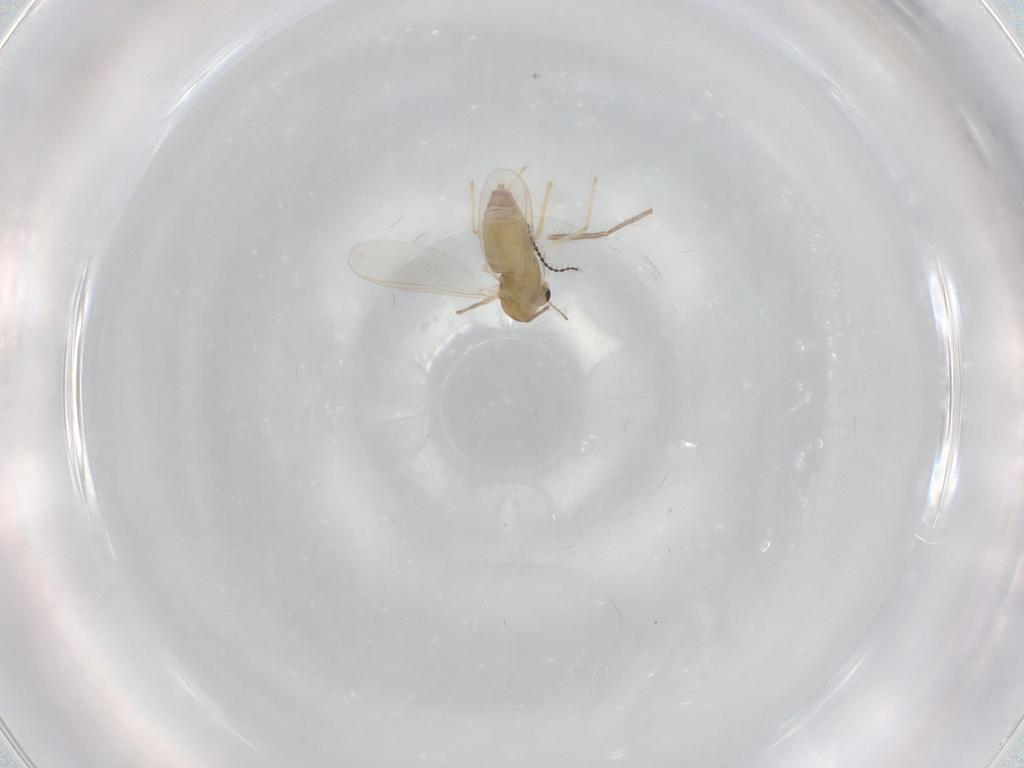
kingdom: Animalia
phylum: Arthropoda
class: Insecta
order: Diptera
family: Chironomidae
